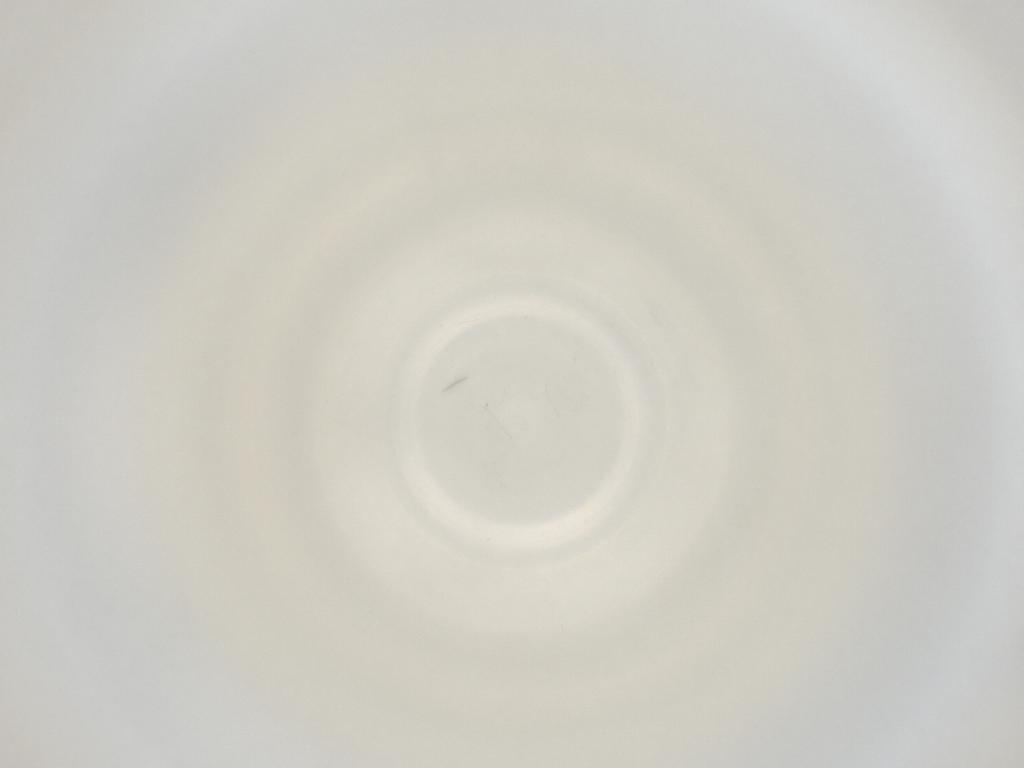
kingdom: Animalia
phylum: Arthropoda
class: Insecta
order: Diptera
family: Cecidomyiidae
